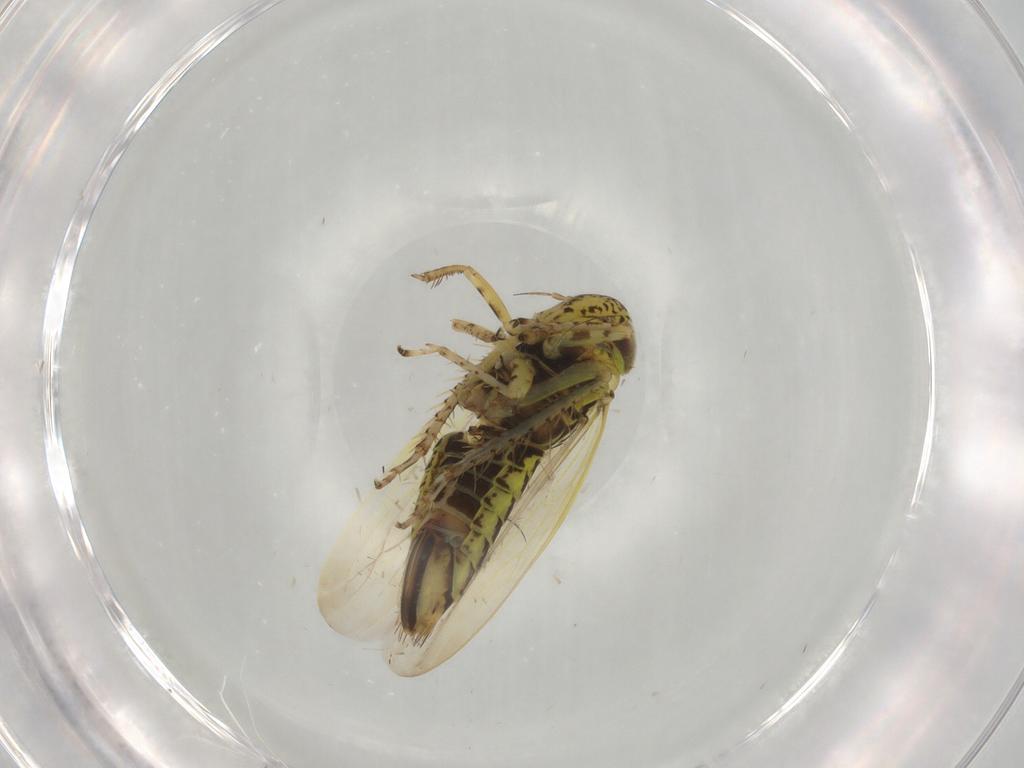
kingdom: Animalia
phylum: Arthropoda
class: Insecta
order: Hemiptera
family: Cicadellidae
